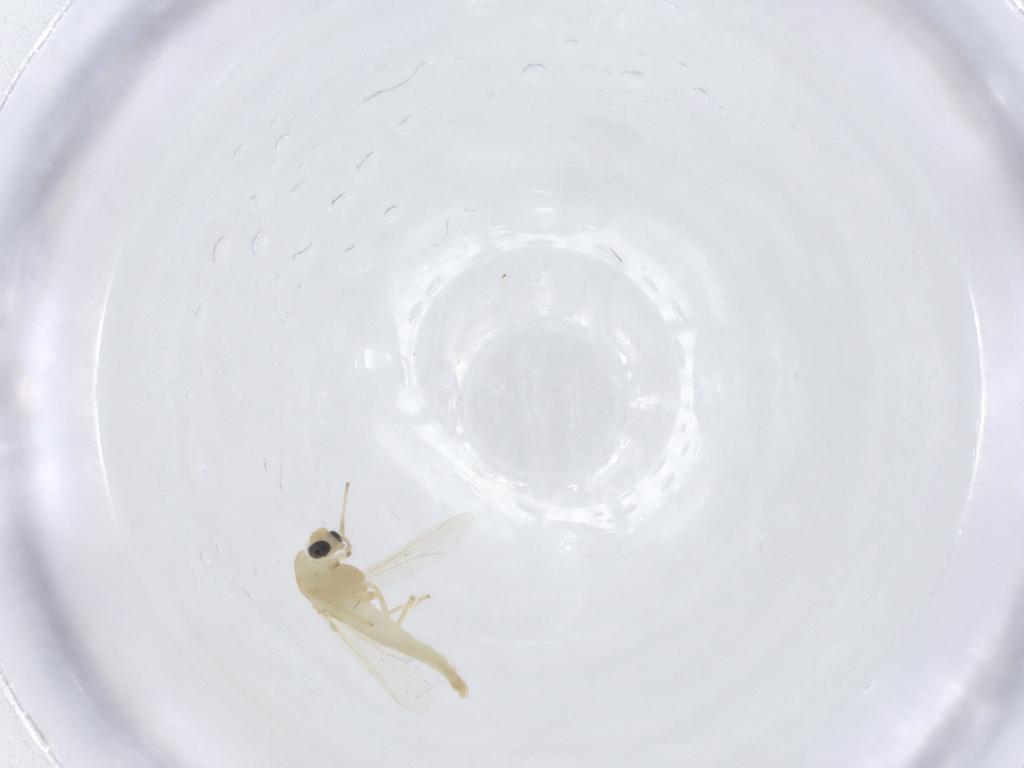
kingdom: Animalia
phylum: Arthropoda
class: Insecta
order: Diptera
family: Chironomidae
